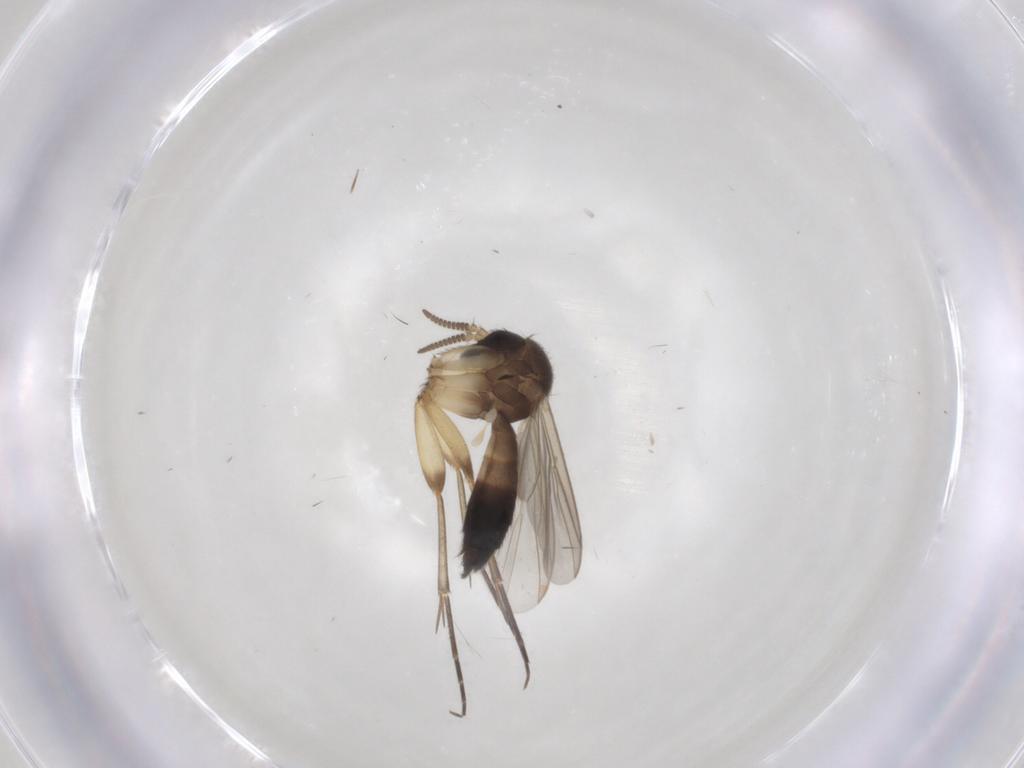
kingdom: Animalia
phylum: Arthropoda
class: Insecta
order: Diptera
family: Mycetophilidae
